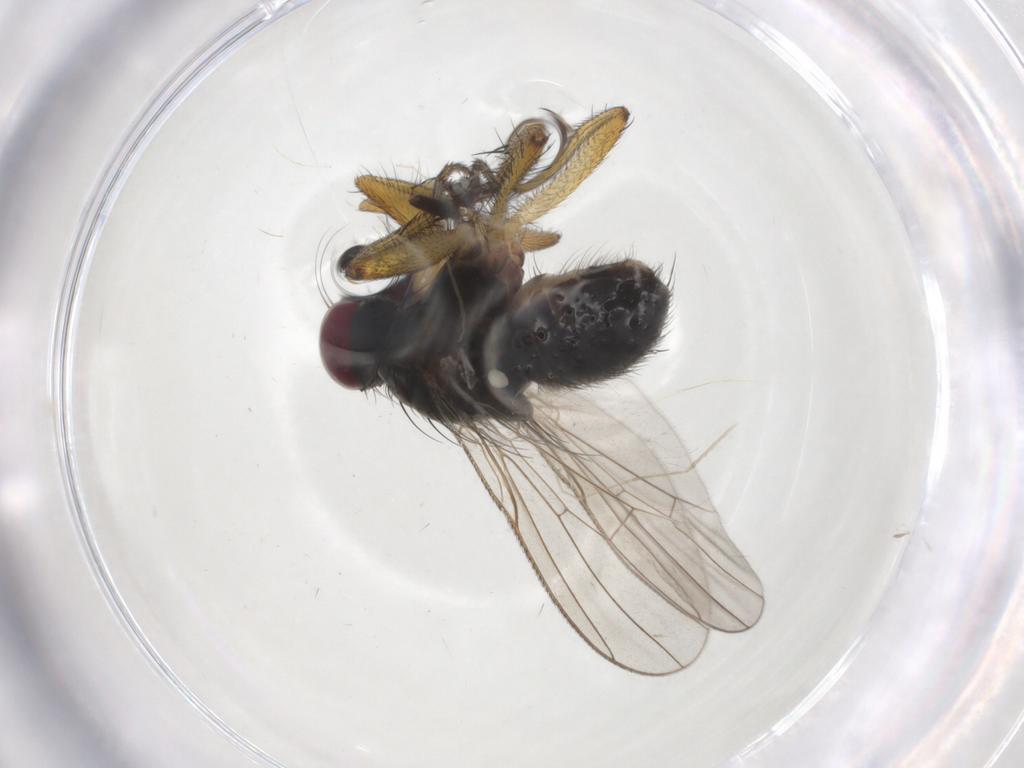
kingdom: Animalia
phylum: Arthropoda
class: Insecta
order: Diptera
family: Muscidae
